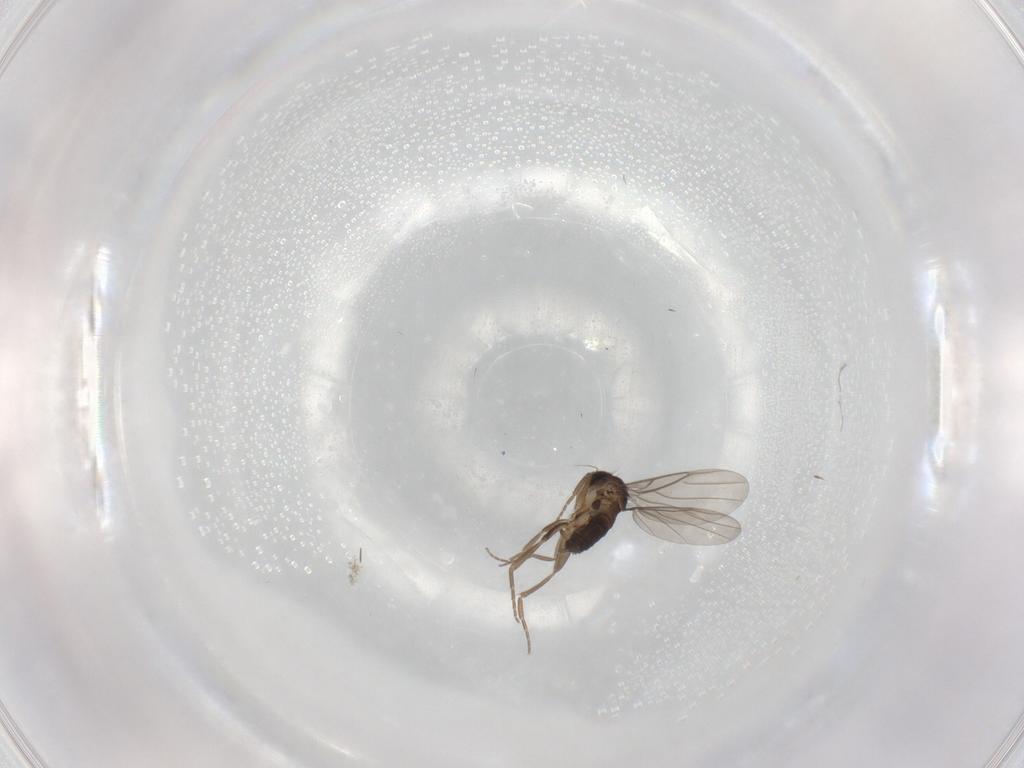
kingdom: Animalia
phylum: Arthropoda
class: Insecta
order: Diptera
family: Phoridae
